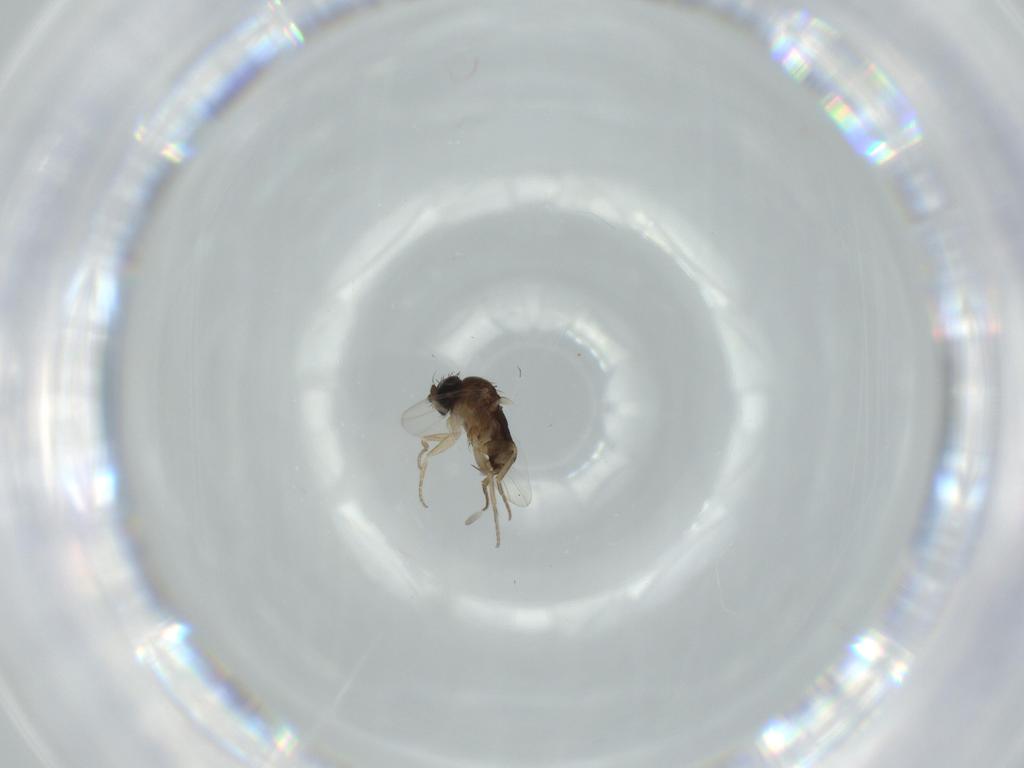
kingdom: Animalia
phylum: Arthropoda
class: Insecta
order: Diptera
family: Phoridae
